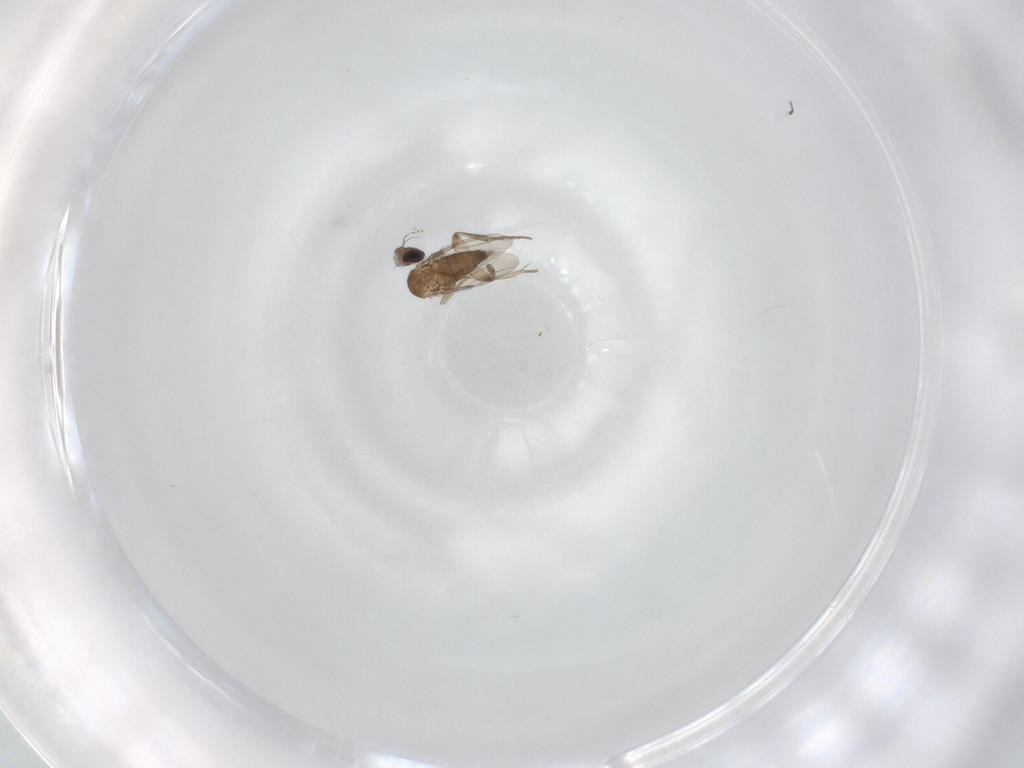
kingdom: Animalia
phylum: Arthropoda
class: Insecta
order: Diptera
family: Phoridae
